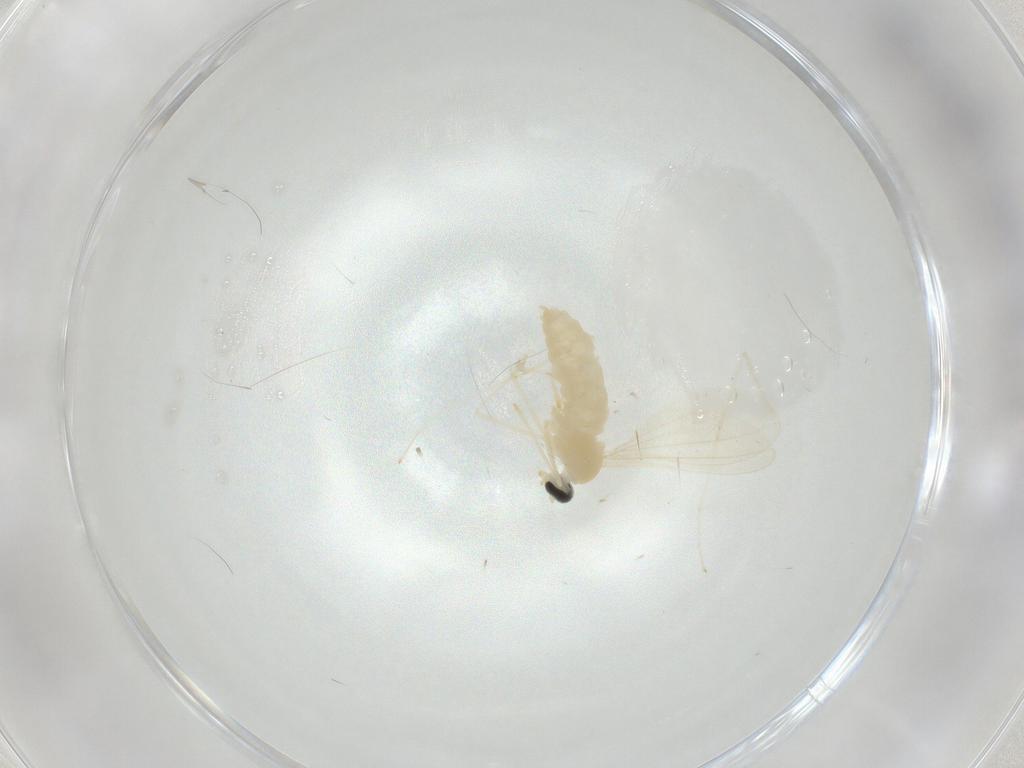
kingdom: Animalia
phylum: Arthropoda
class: Insecta
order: Diptera
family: Cecidomyiidae
